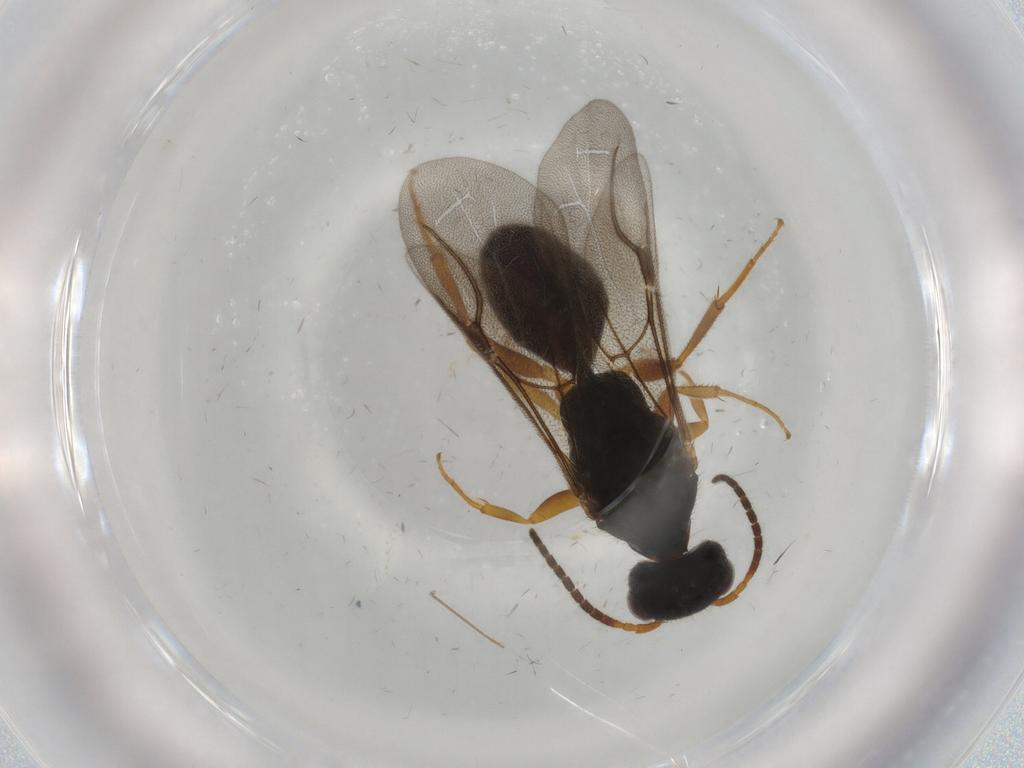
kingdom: Animalia
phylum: Arthropoda
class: Insecta
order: Hymenoptera
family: Bethylidae
